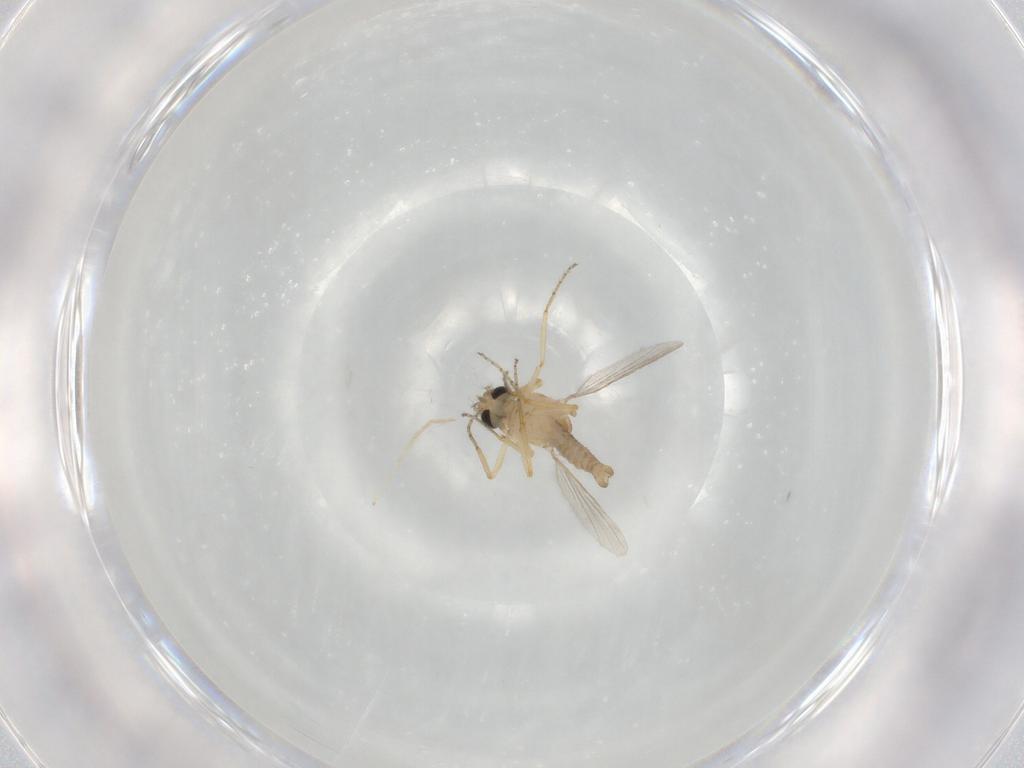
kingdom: Animalia
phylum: Arthropoda
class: Insecta
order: Diptera
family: Ceratopogonidae
